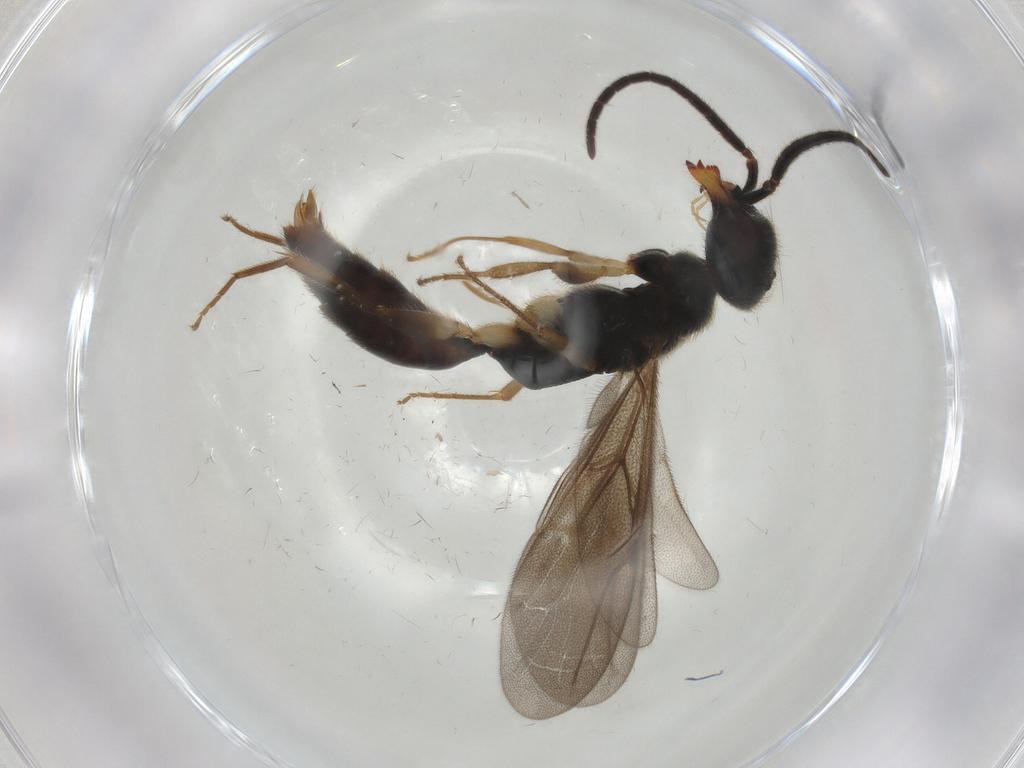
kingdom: Animalia
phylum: Arthropoda
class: Insecta
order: Hymenoptera
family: Bethylidae
